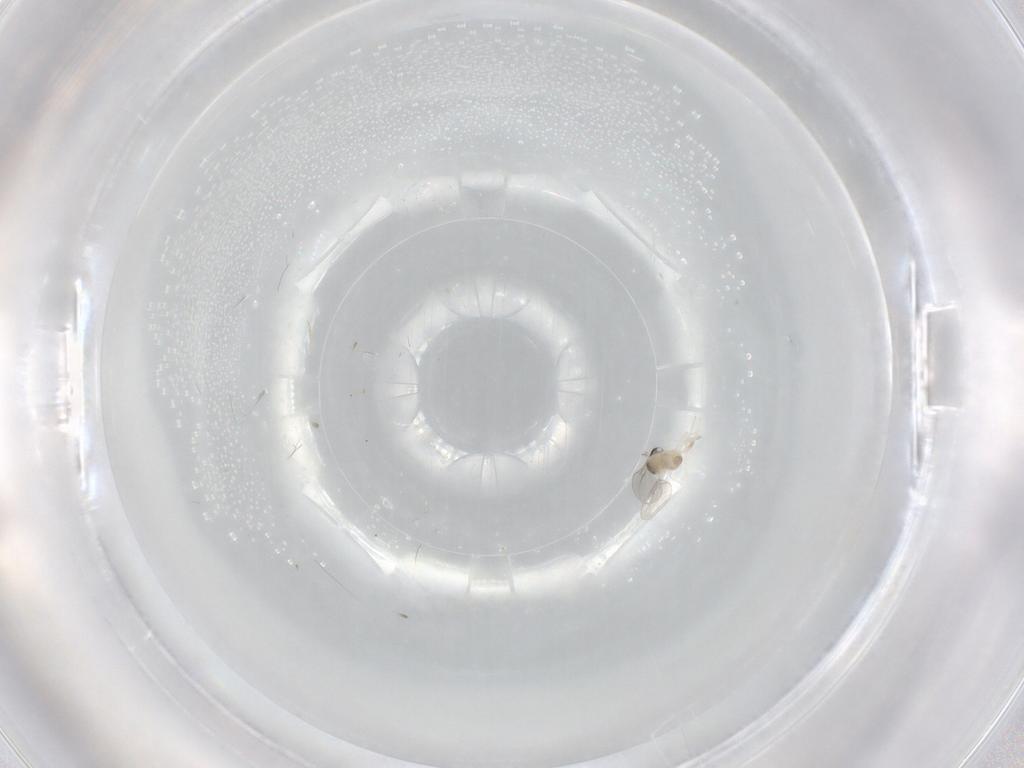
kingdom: Animalia
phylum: Arthropoda
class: Insecta
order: Diptera
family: Cecidomyiidae
